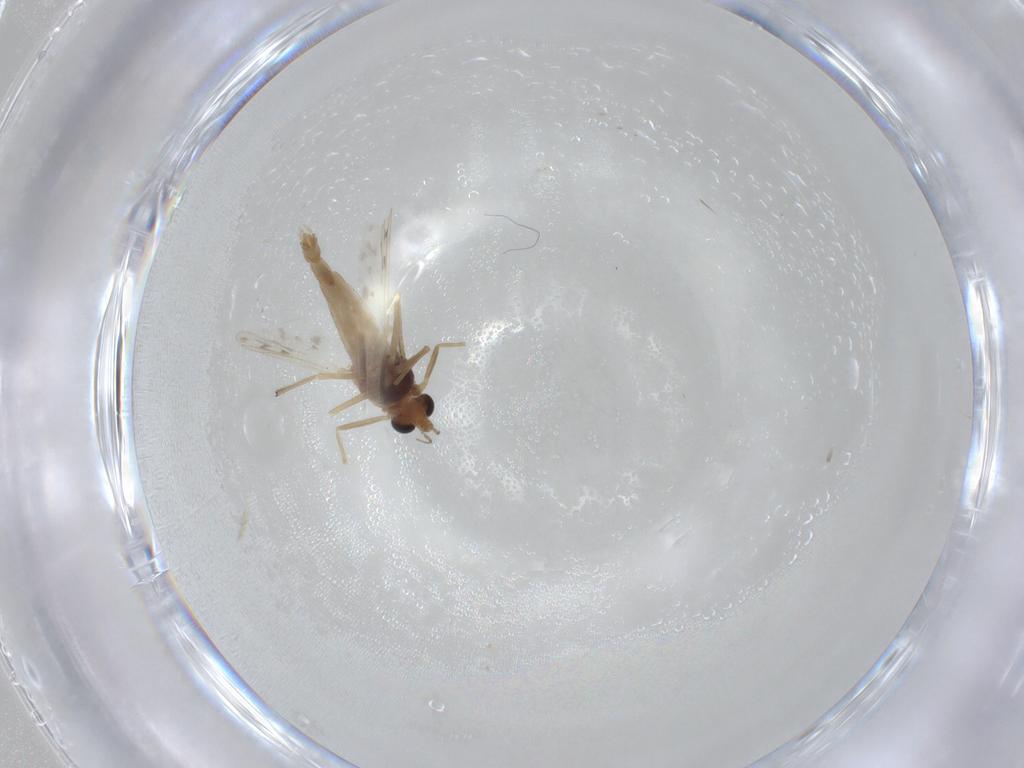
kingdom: Animalia
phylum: Arthropoda
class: Insecta
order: Diptera
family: Chironomidae
